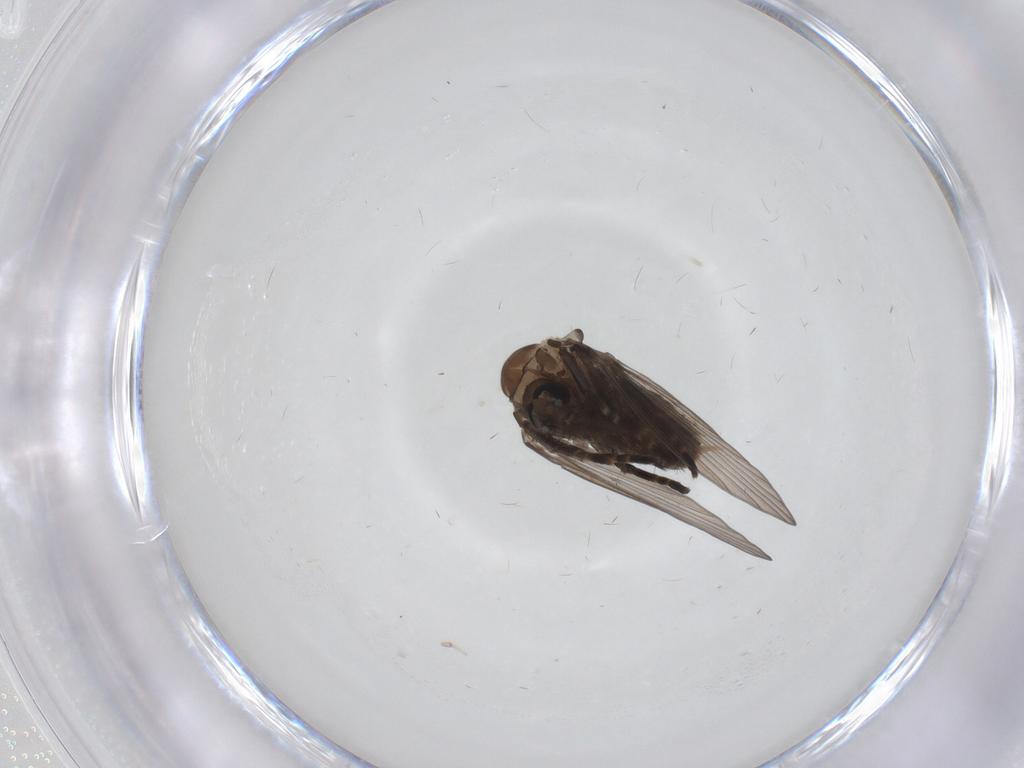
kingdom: Animalia
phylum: Arthropoda
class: Insecta
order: Diptera
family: Psychodidae
